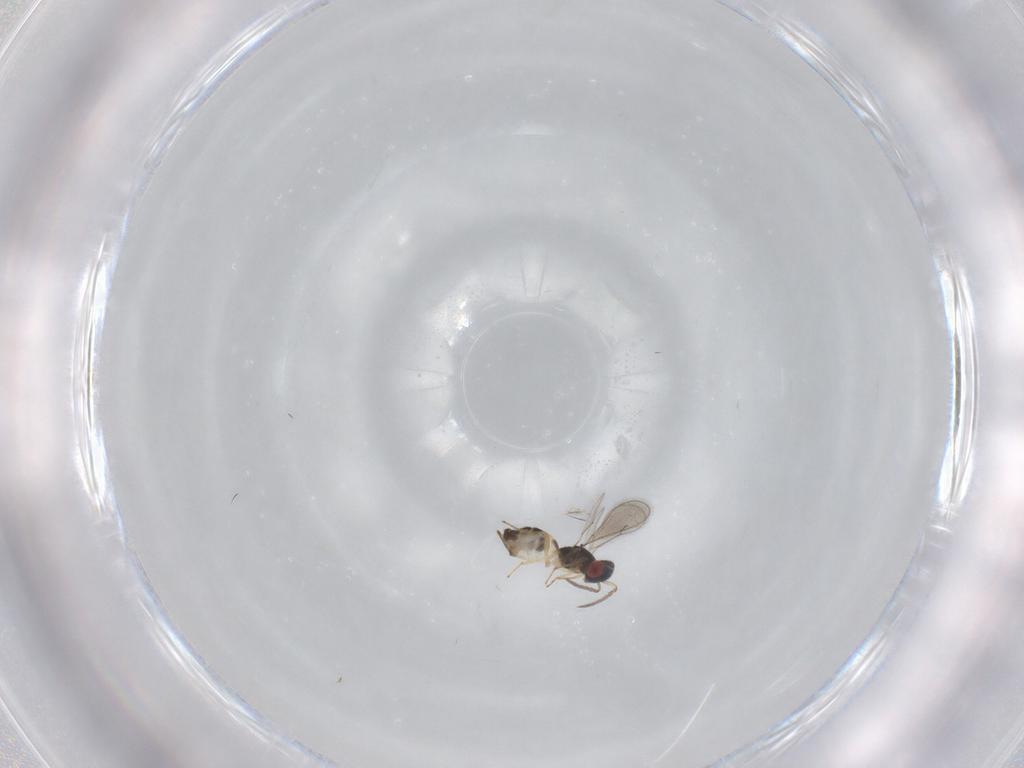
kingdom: Animalia
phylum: Arthropoda
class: Insecta
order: Hymenoptera
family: Eulophidae
